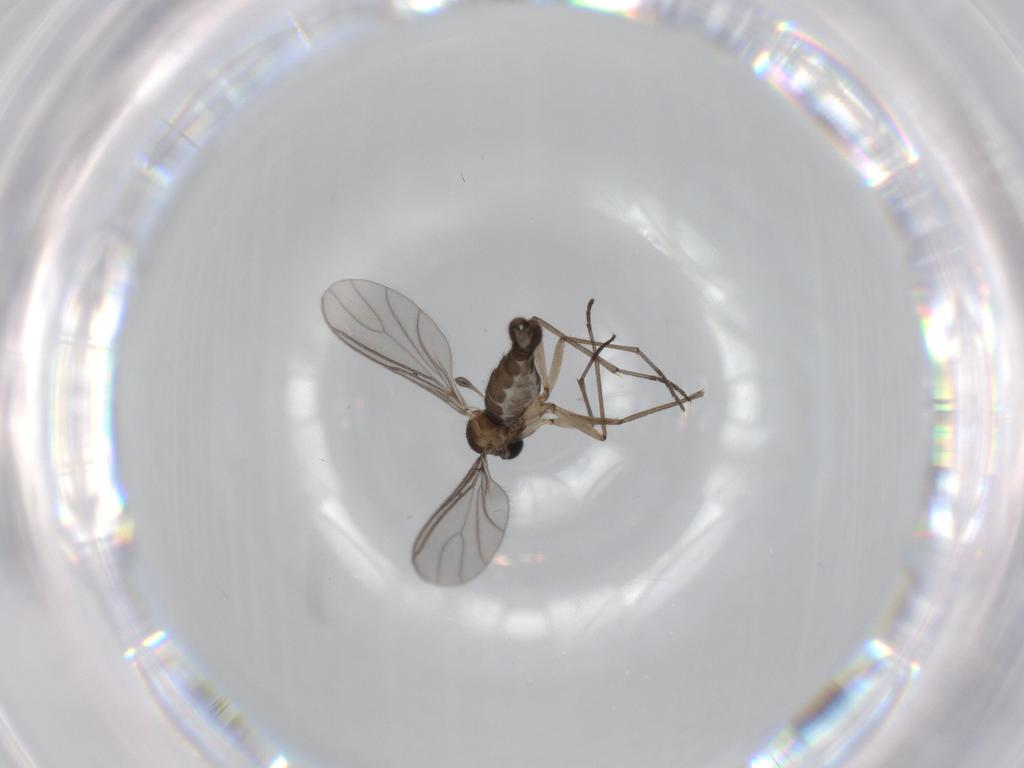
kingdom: Animalia
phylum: Arthropoda
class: Insecta
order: Diptera
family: Sciaridae
